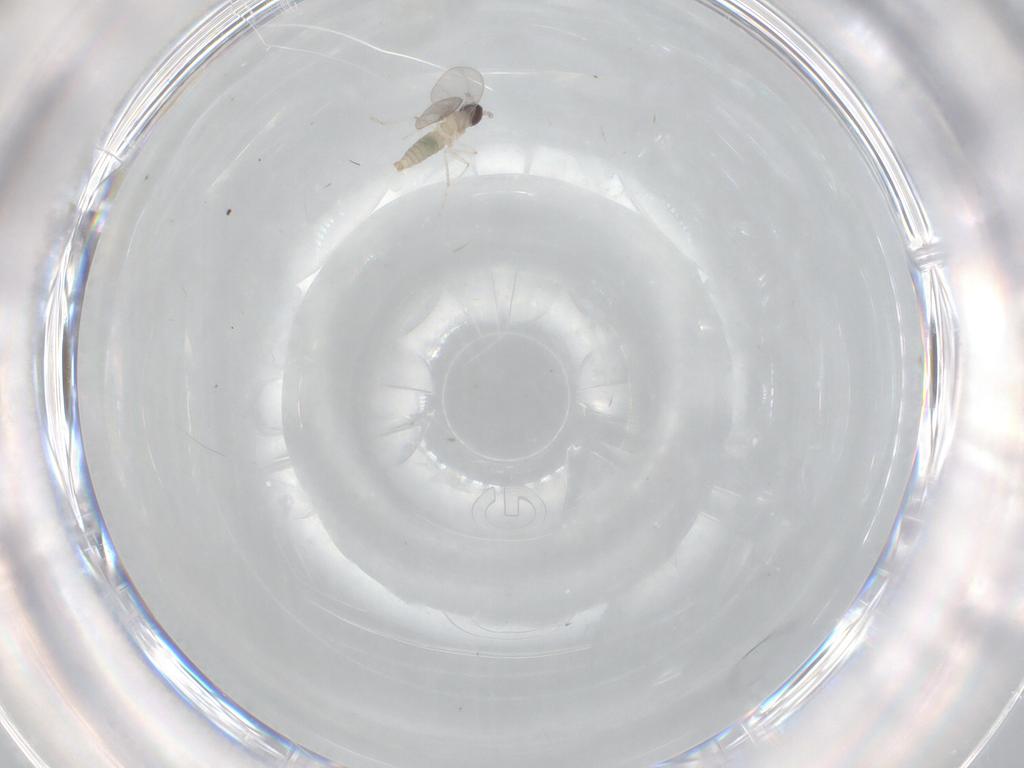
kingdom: Animalia
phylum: Arthropoda
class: Insecta
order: Diptera
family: Cecidomyiidae
